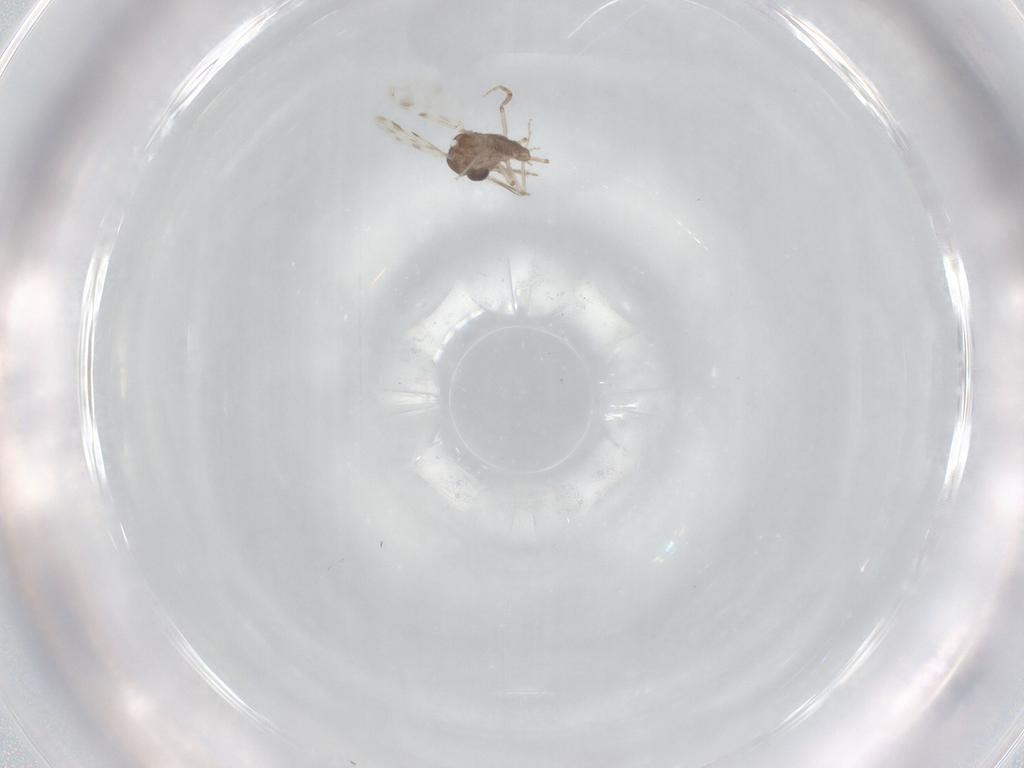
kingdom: Animalia
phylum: Arthropoda
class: Insecta
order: Diptera
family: Ceratopogonidae
